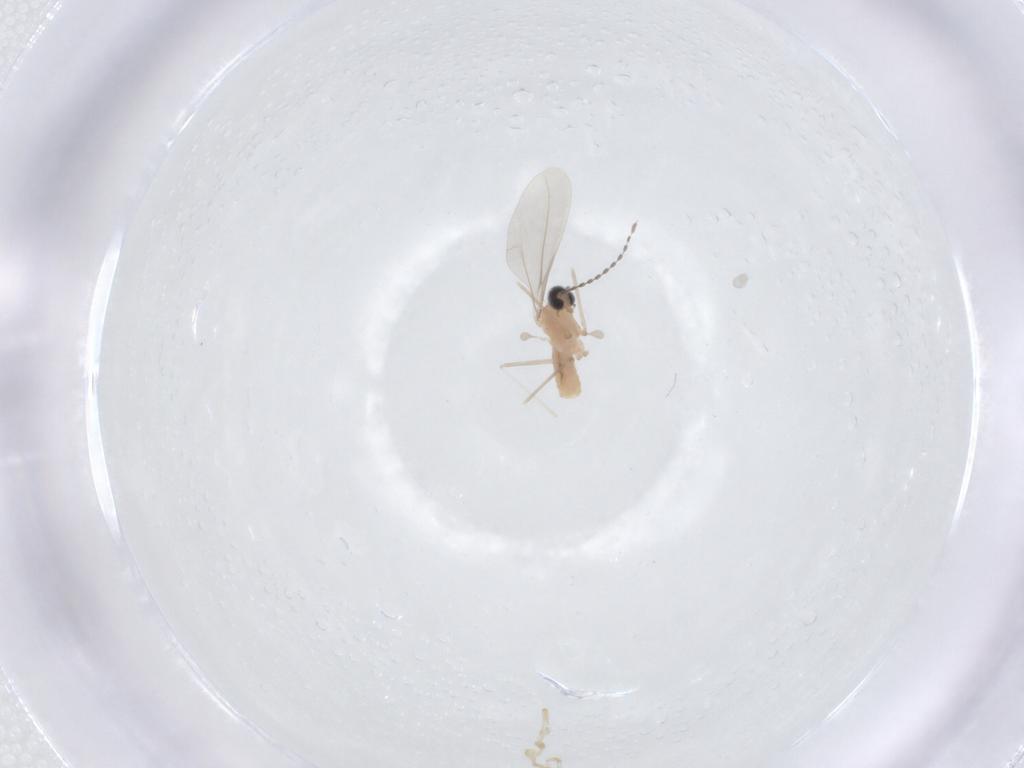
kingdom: Animalia
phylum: Arthropoda
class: Insecta
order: Diptera
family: Cecidomyiidae
